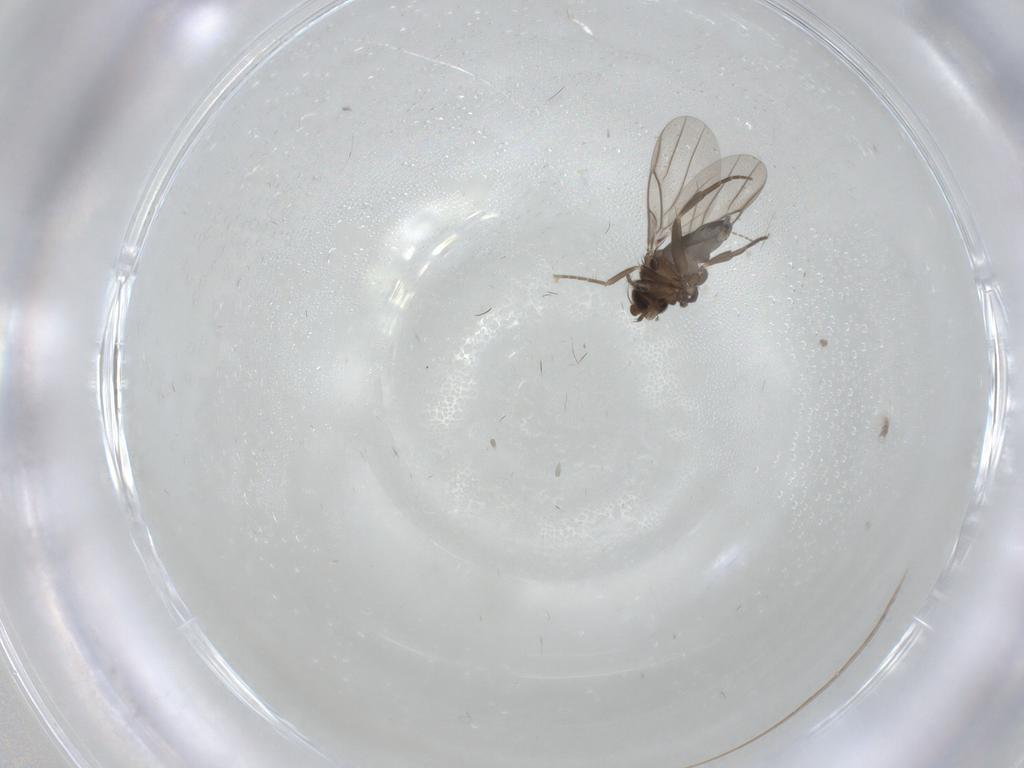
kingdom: Animalia
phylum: Arthropoda
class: Insecta
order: Diptera
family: Phoridae
